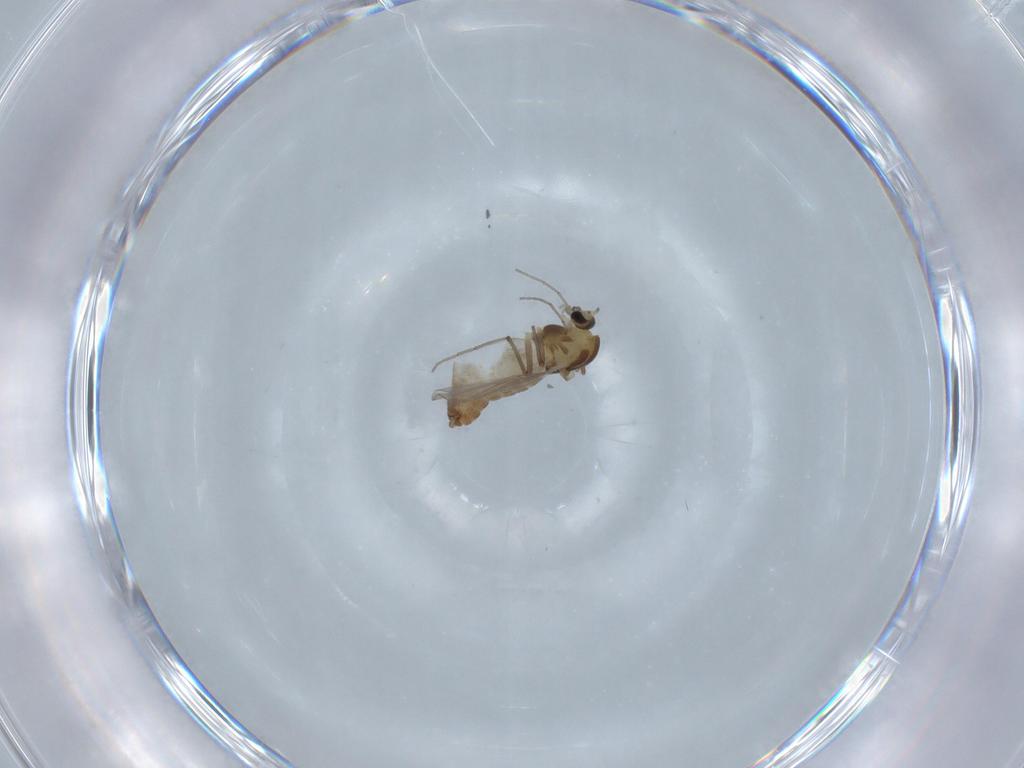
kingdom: Animalia
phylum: Arthropoda
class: Insecta
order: Diptera
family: Chironomidae
